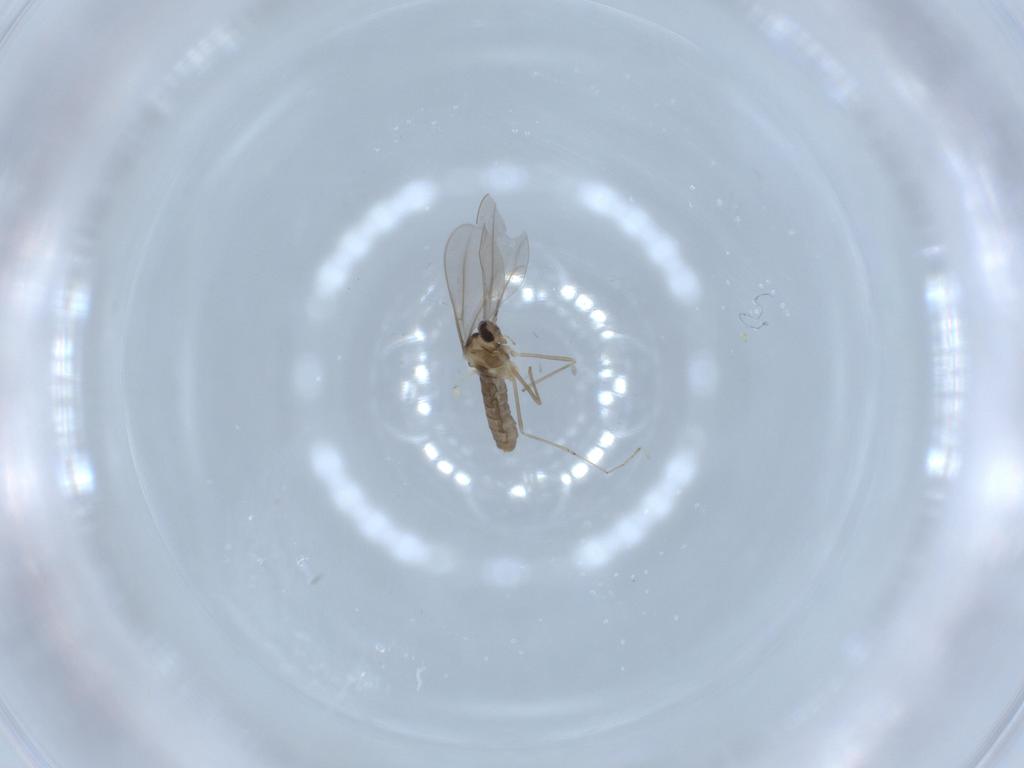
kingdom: Animalia
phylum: Arthropoda
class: Insecta
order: Diptera
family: Cecidomyiidae
